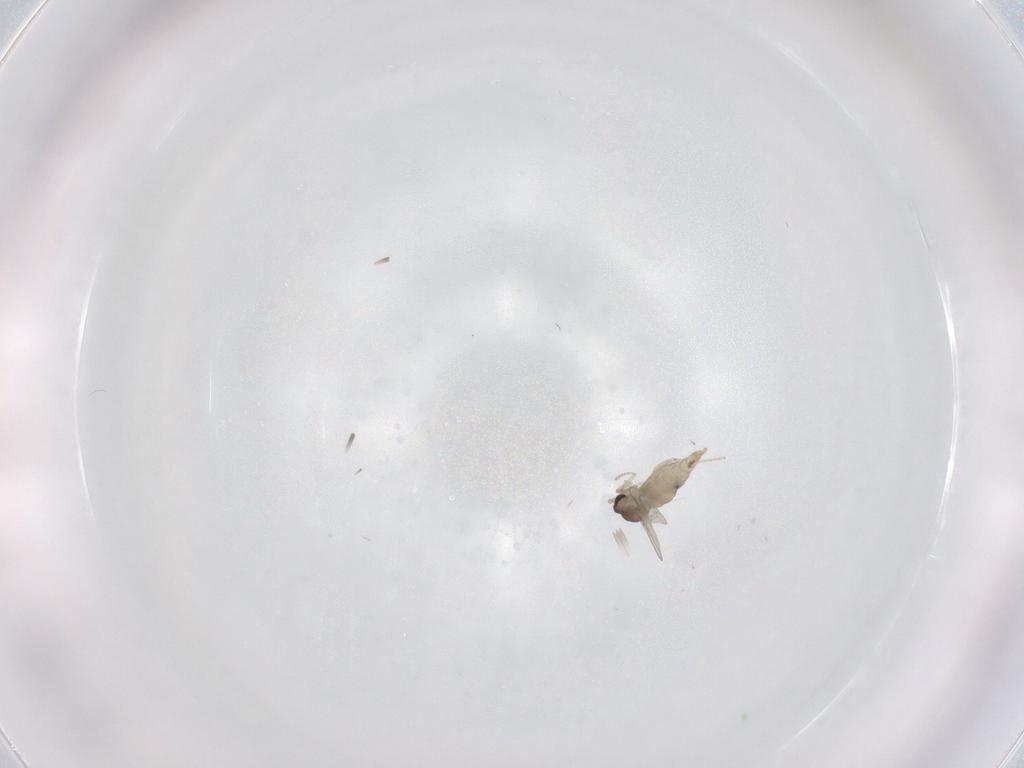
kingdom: Animalia
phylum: Arthropoda
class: Insecta
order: Diptera
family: Cecidomyiidae
